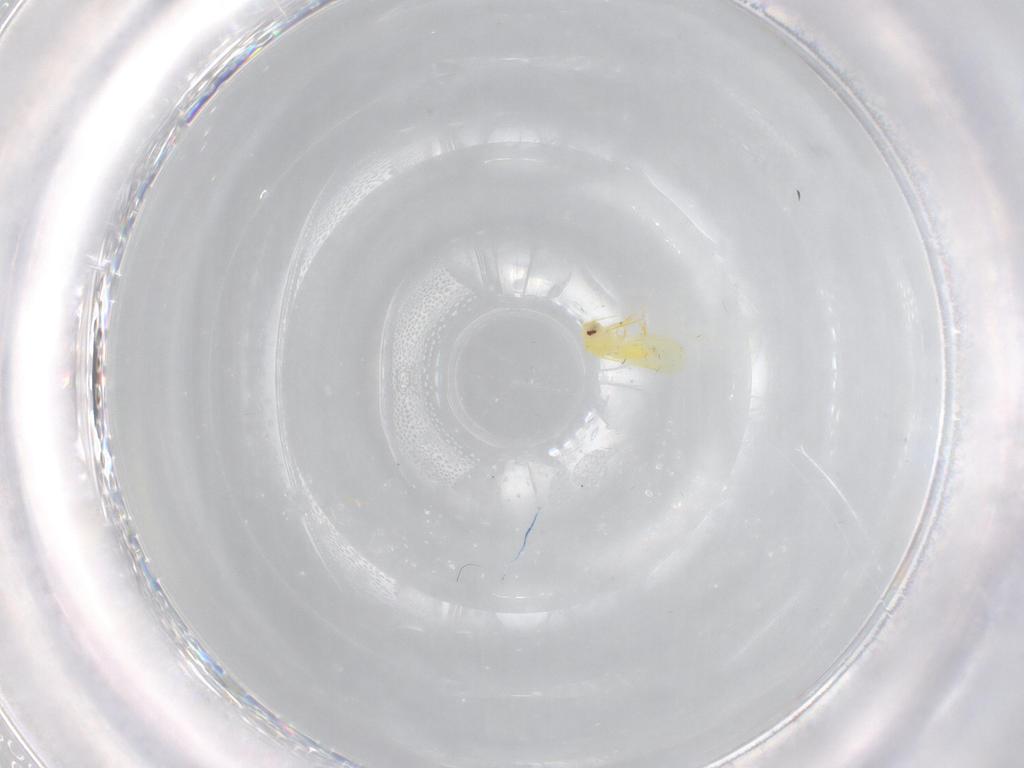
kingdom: Animalia
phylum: Arthropoda
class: Insecta
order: Hemiptera
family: Aleyrodidae
